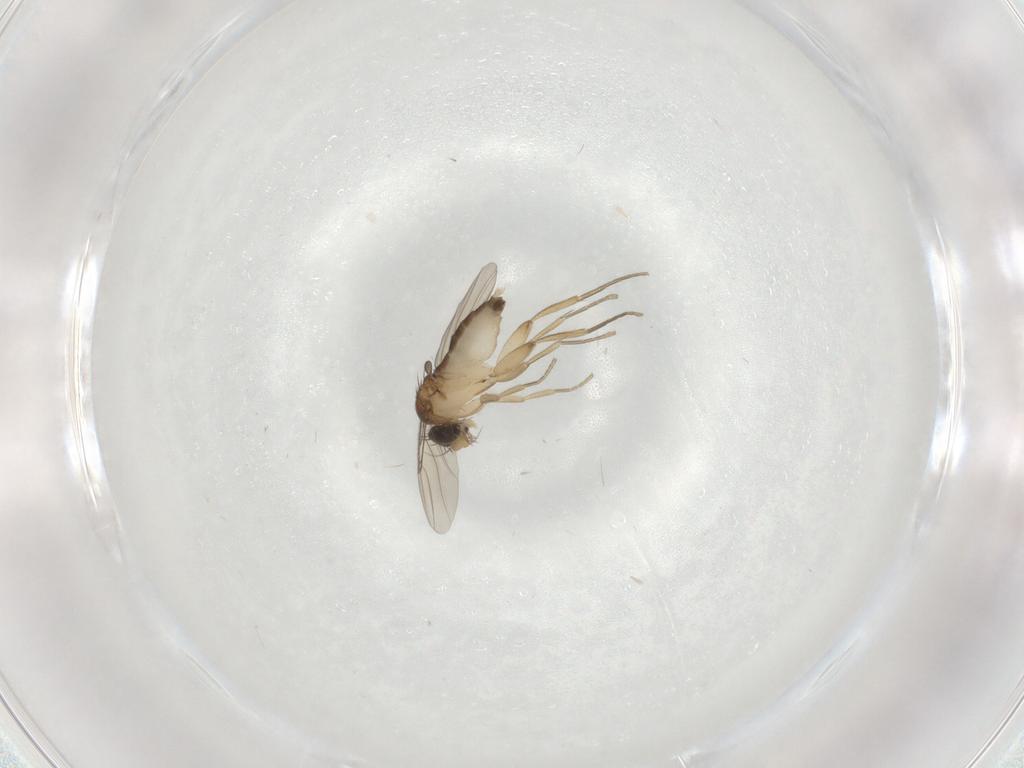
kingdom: Animalia
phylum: Arthropoda
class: Insecta
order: Diptera
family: Phoridae
